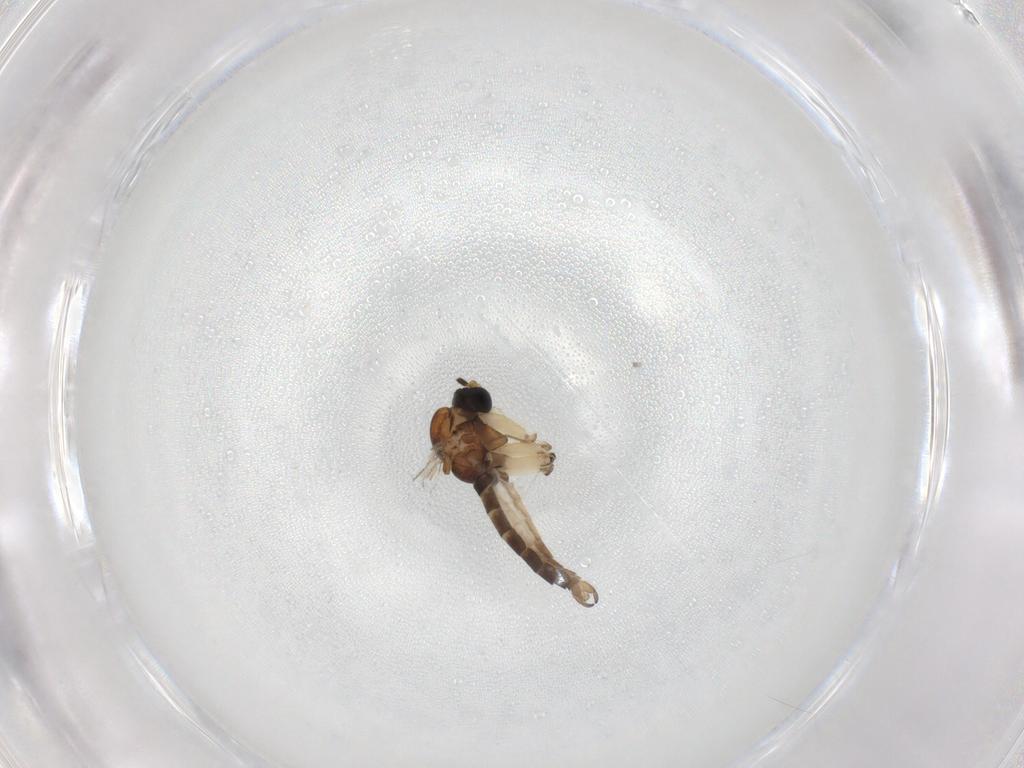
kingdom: Animalia
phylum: Arthropoda
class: Insecta
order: Diptera
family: Sciaridae
